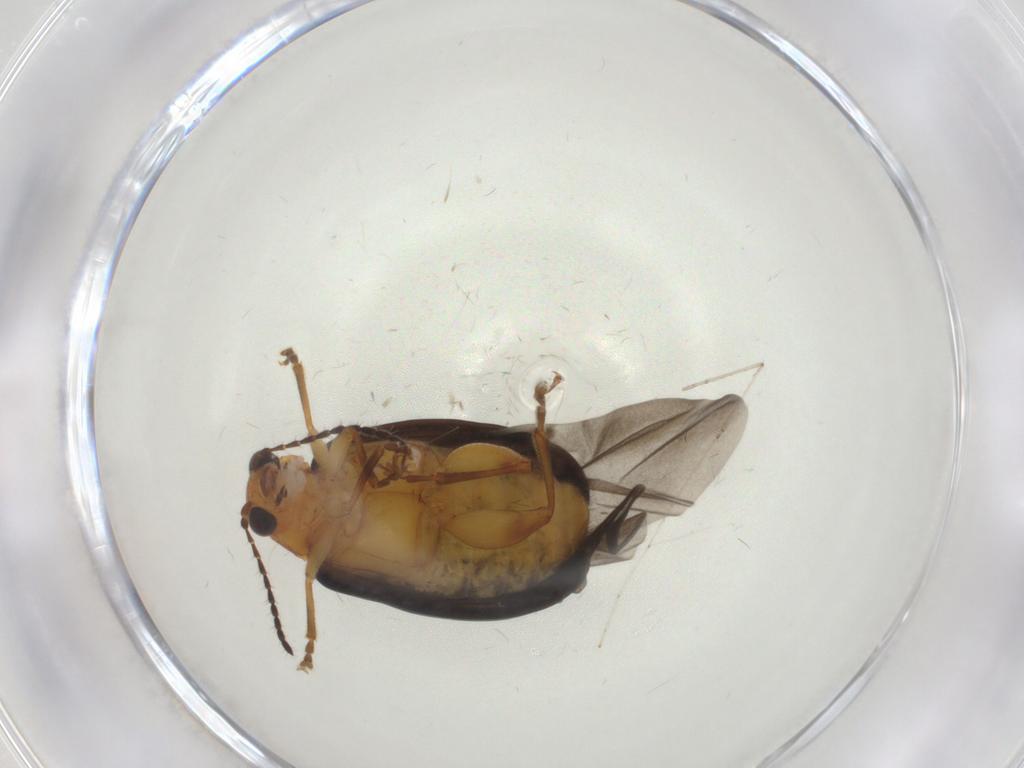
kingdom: Animalia
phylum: Arthropoda
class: Insecta
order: Coleoptera
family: Chrysomelidae
